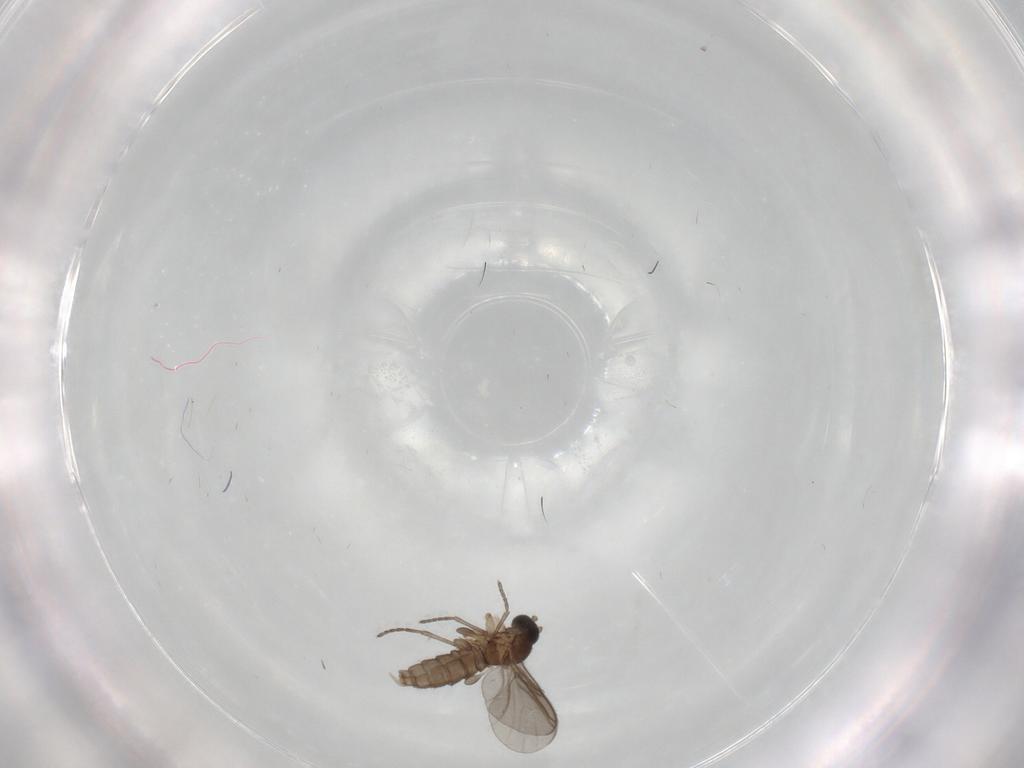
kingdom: Animalia
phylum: Arthropoda
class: Insecta
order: Diptera
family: Sciaridae
